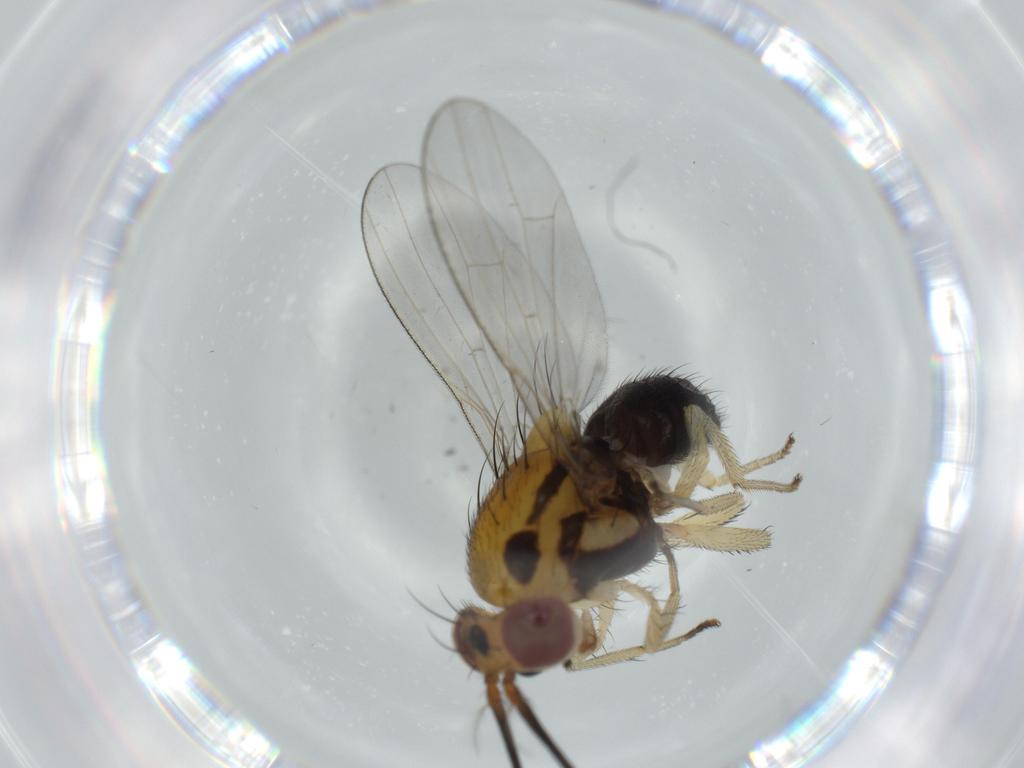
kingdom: Animalia
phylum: Arthropoda
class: Insecta
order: Diptera
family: Lauxaniidae
